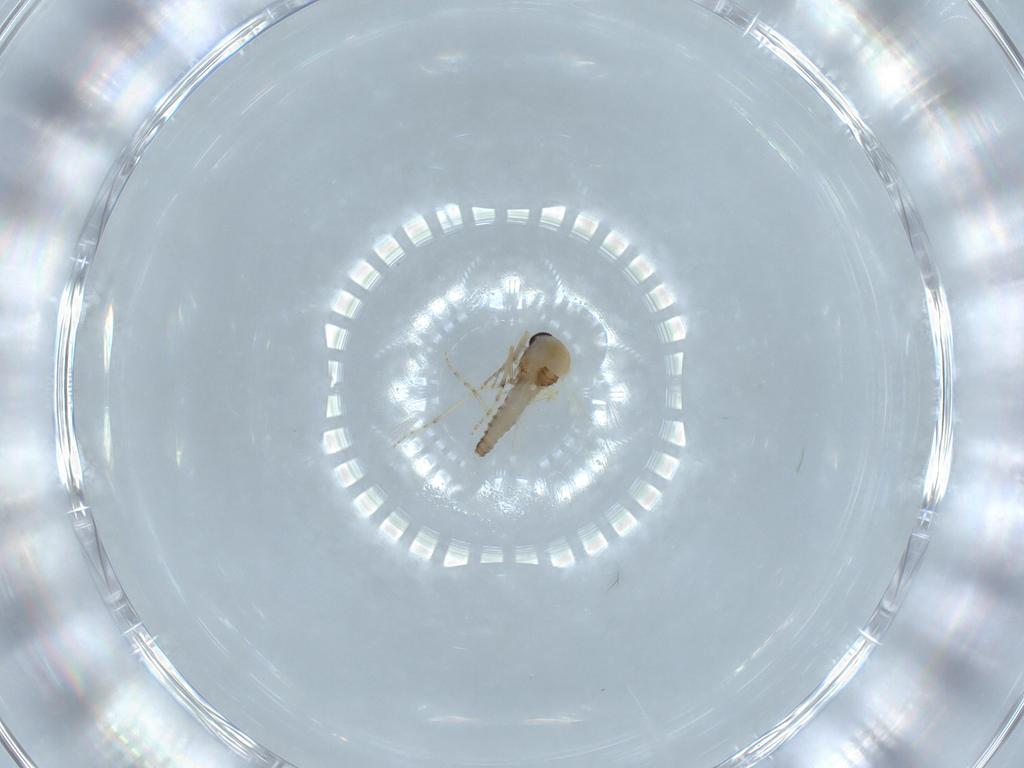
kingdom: Animalia
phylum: Arthropoda
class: Insecta
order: Diptera
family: Ceratopogonidae
